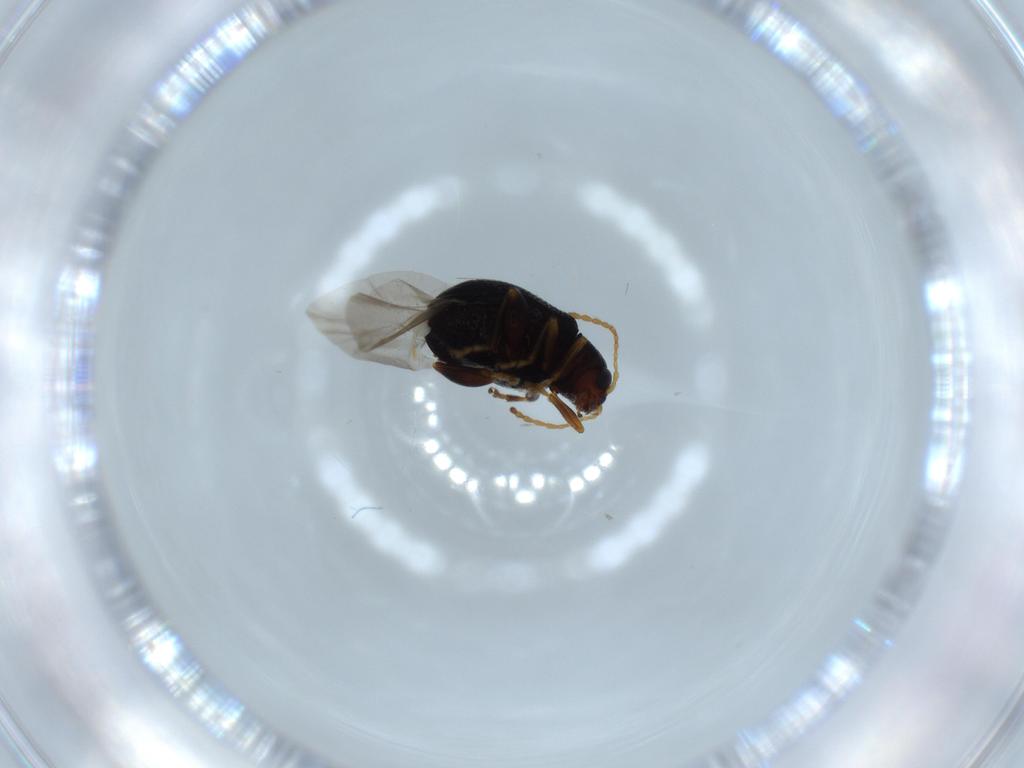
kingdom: Animalia
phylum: Arthropoda
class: Insecta
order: Coleoptera
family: Chrysomelidae
